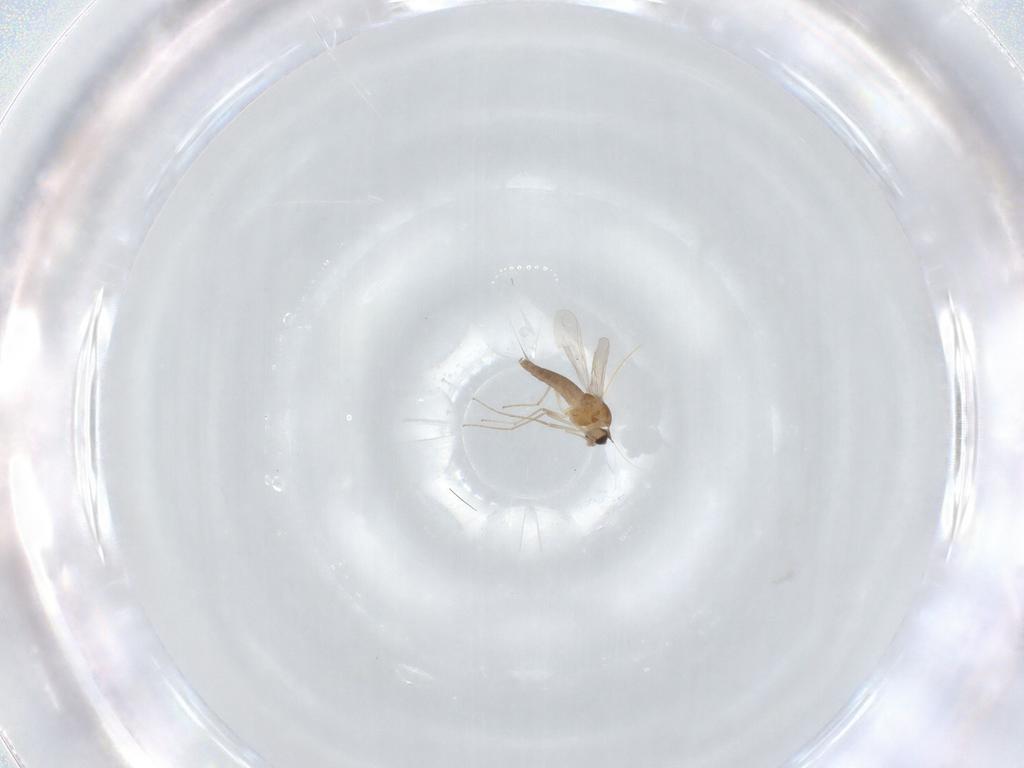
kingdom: Animalia
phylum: Arthropoda
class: Insecta
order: Diptera
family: Chironomidae
